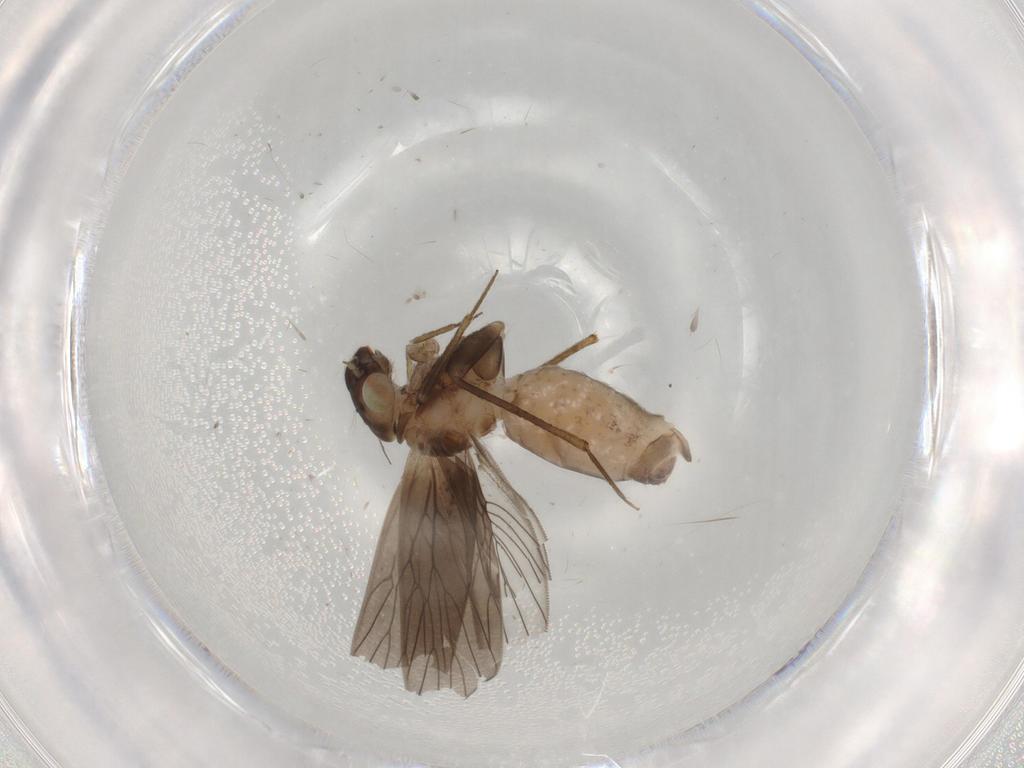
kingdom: Animalia
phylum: Arthropoda
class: Insecta
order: Psocodea
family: Lepidopsocidae
